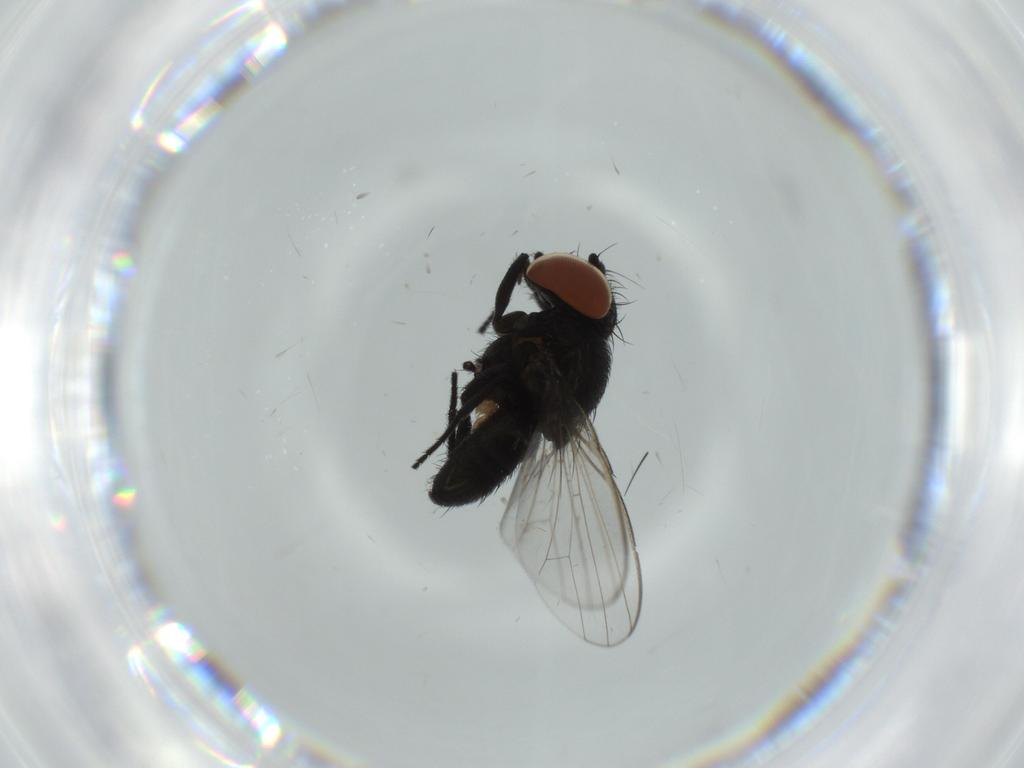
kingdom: Animalia
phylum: Arthropoda
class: Insecta
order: Diptera
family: Milichiidae
